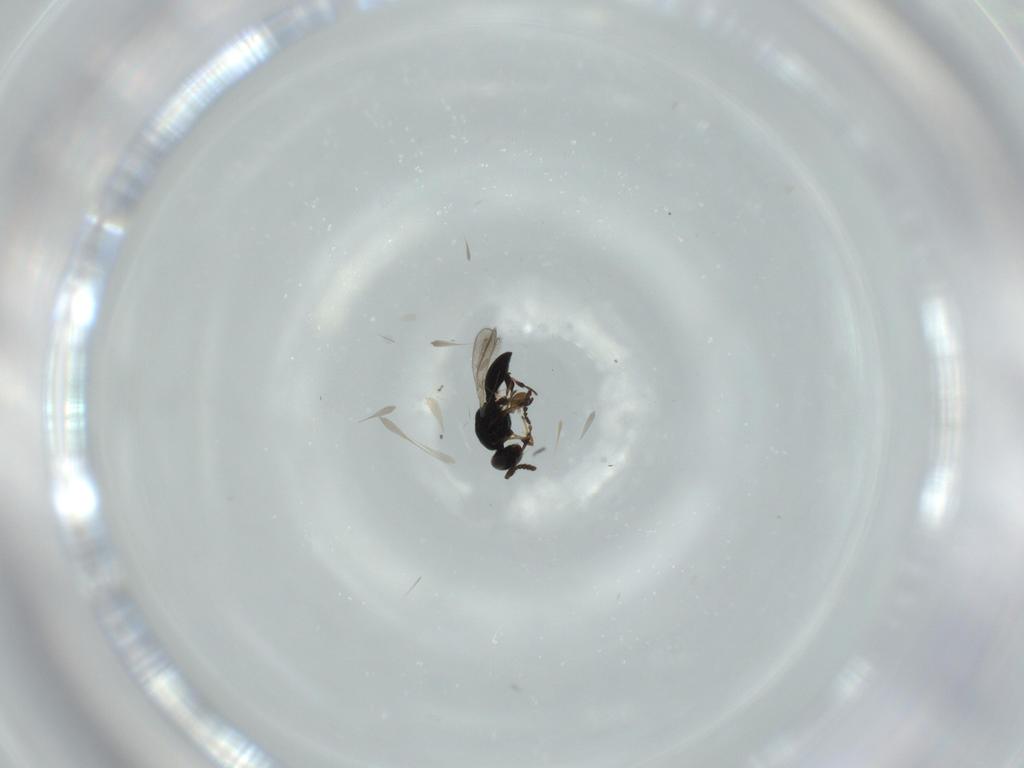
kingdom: Animalia
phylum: Arthropoda
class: Insecta
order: Hymenoptera
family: Platygastridae
